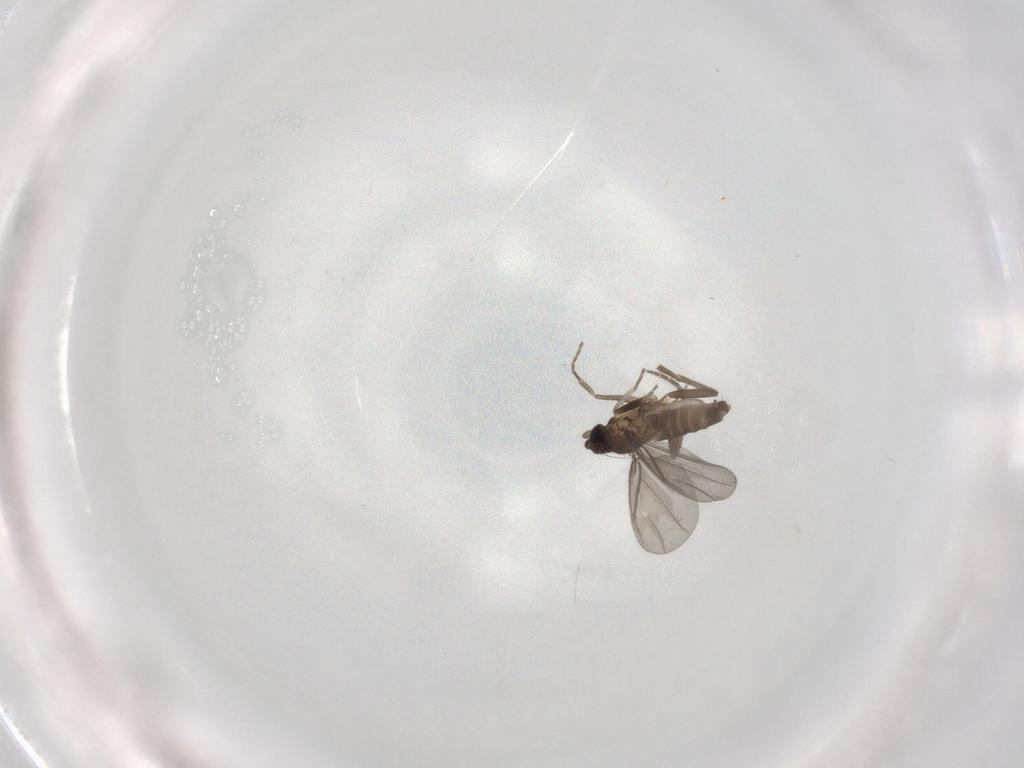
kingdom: Animalia
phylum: Arthropoda
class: Insecta
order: Diptera
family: Phoridae
